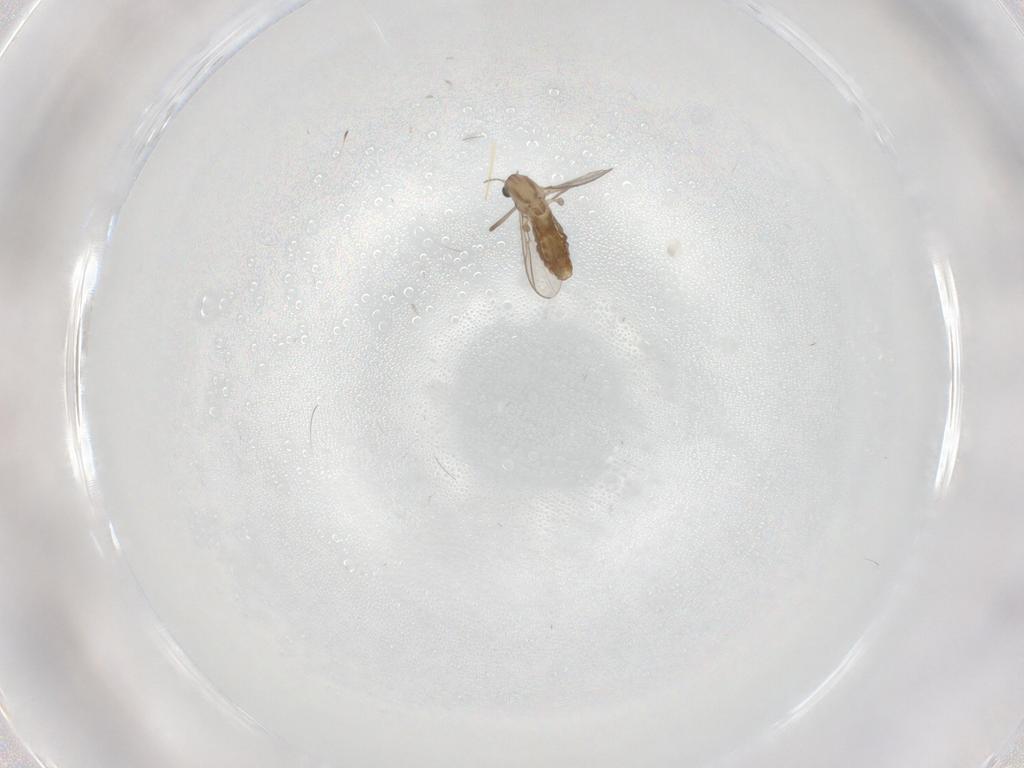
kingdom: Animalia
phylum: Arthropoda
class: Insecta
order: Diptera
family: Chironomidae
